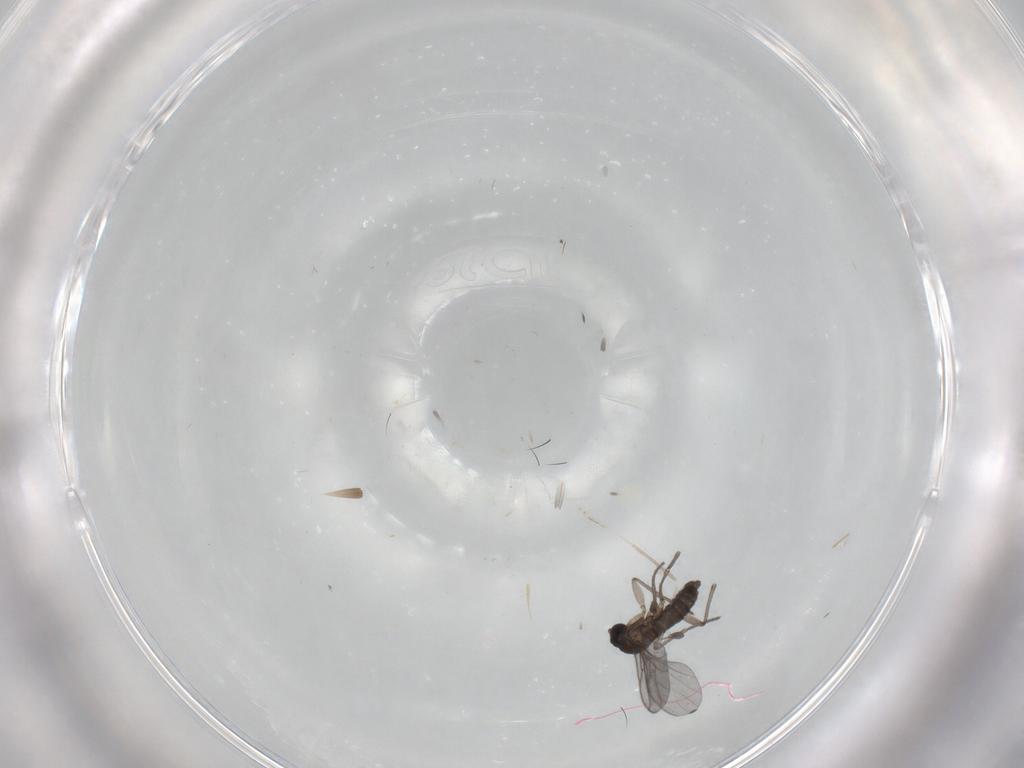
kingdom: Animalia
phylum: Arthropoda
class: Insecta
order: Diptera
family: Dolichopodidae
